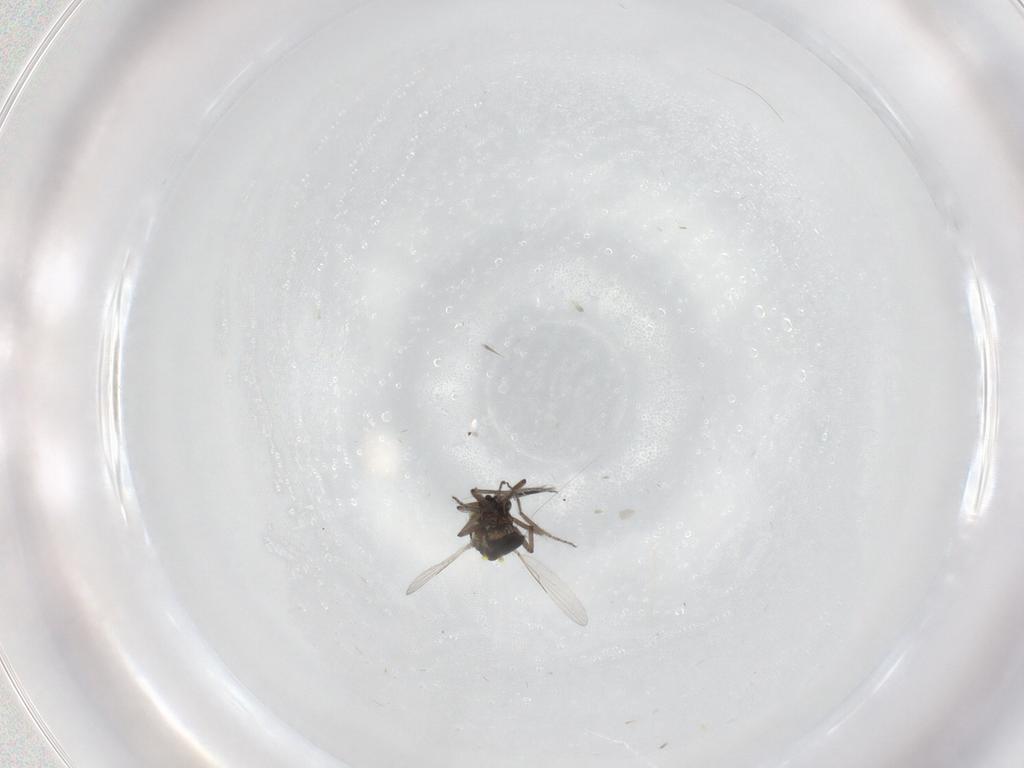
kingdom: Animalia
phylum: Arthropoda
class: Insecta
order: Diptera
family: Ceratopogonidae
